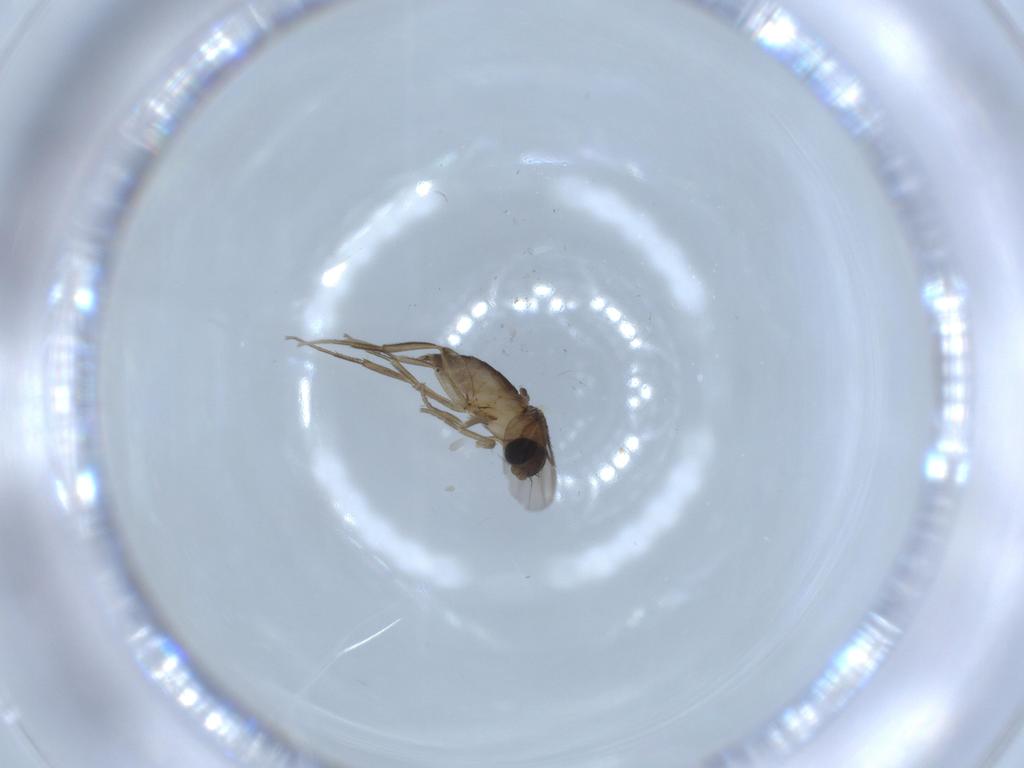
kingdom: Animalia
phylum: Arthropoda
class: Insecta
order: Diptera
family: Phoridae
